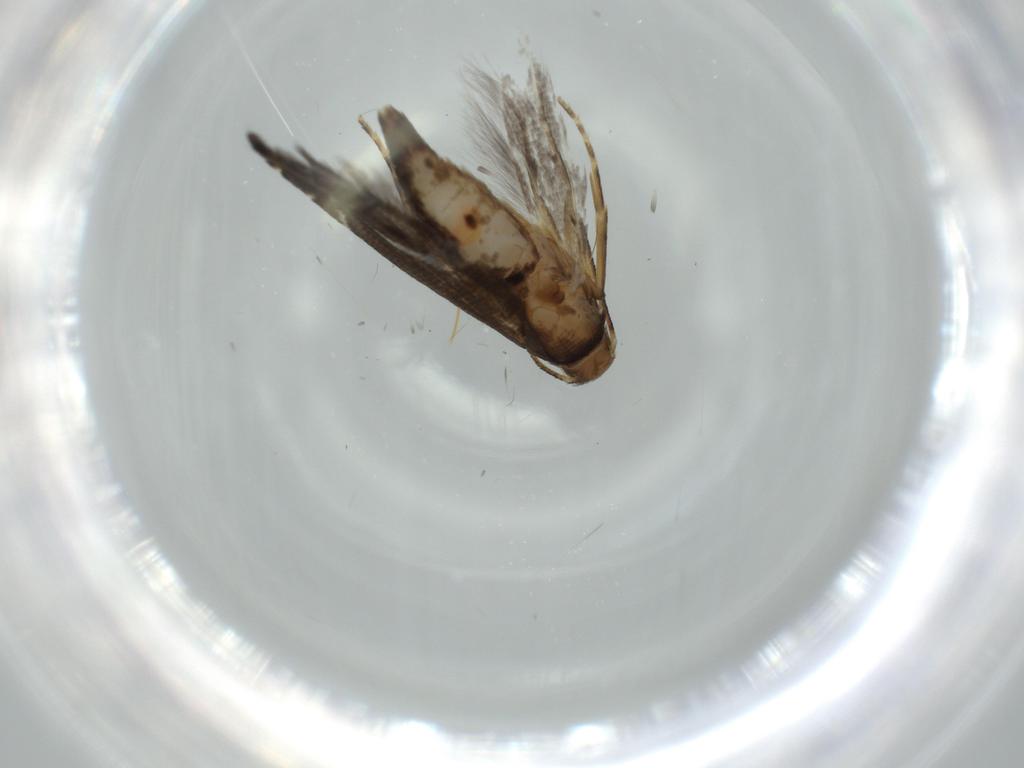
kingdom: Animalia
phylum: Arthropoda
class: Insecta
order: Lepidoptera
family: Glyphipterigidae
